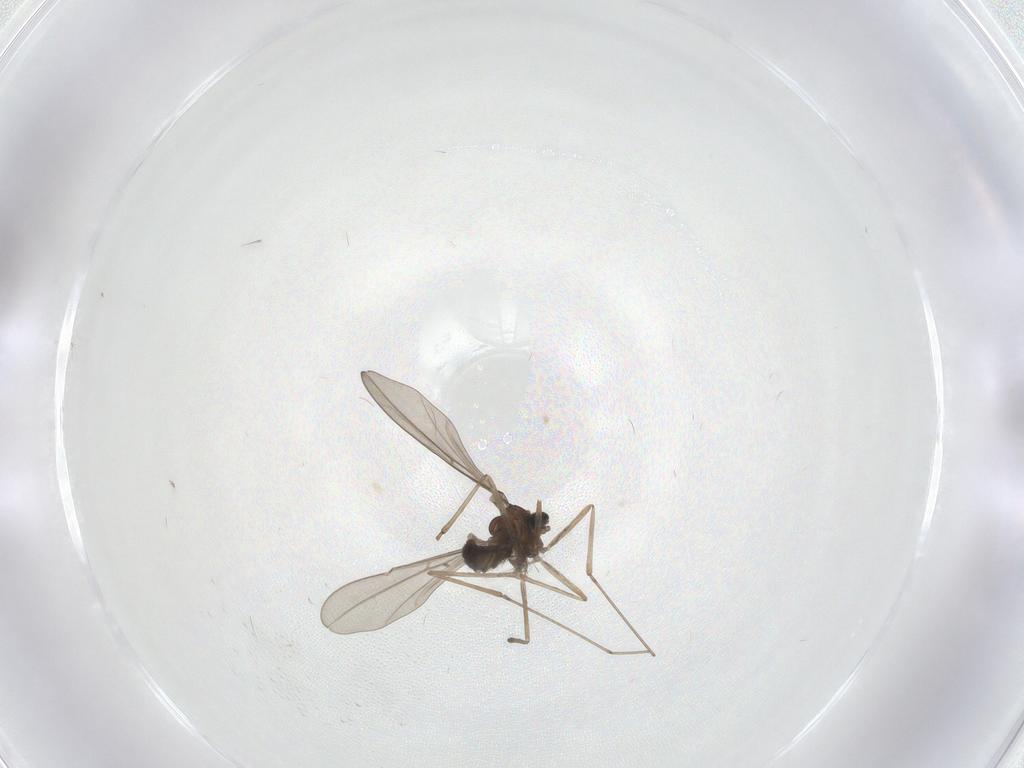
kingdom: Animalia
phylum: Arthropoda
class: Insecta
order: Diptera
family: Cecidomyiidae
